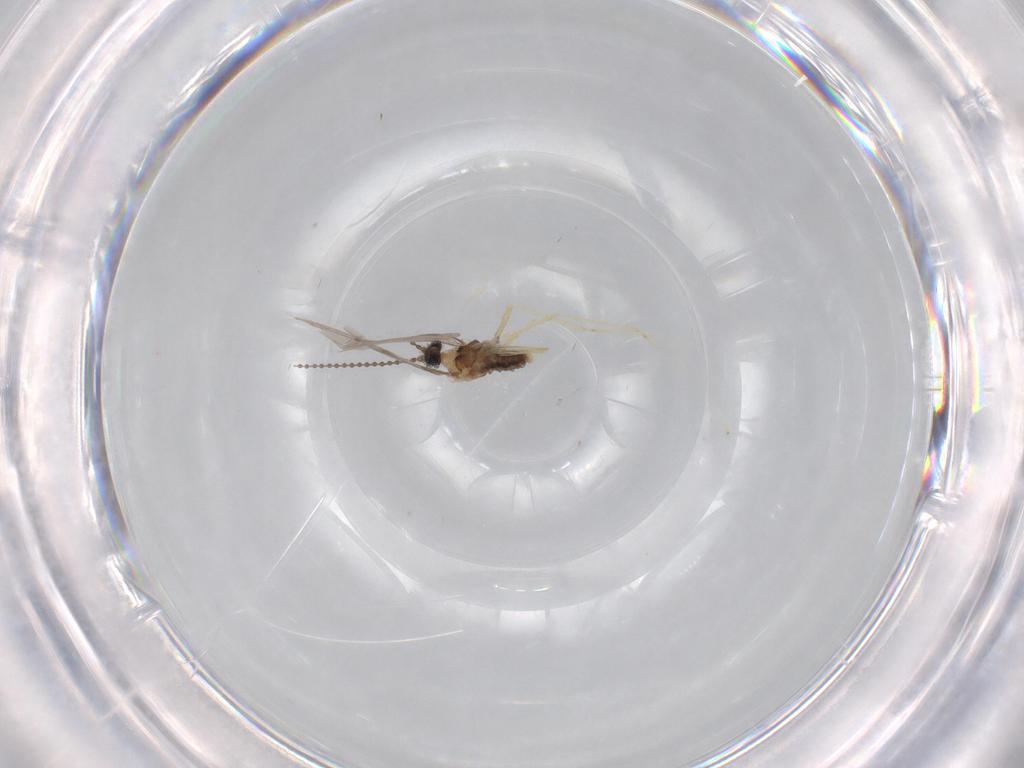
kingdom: Animalia
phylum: Arthropoda
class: Insecta
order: Diptera
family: Cecidomyiidae
